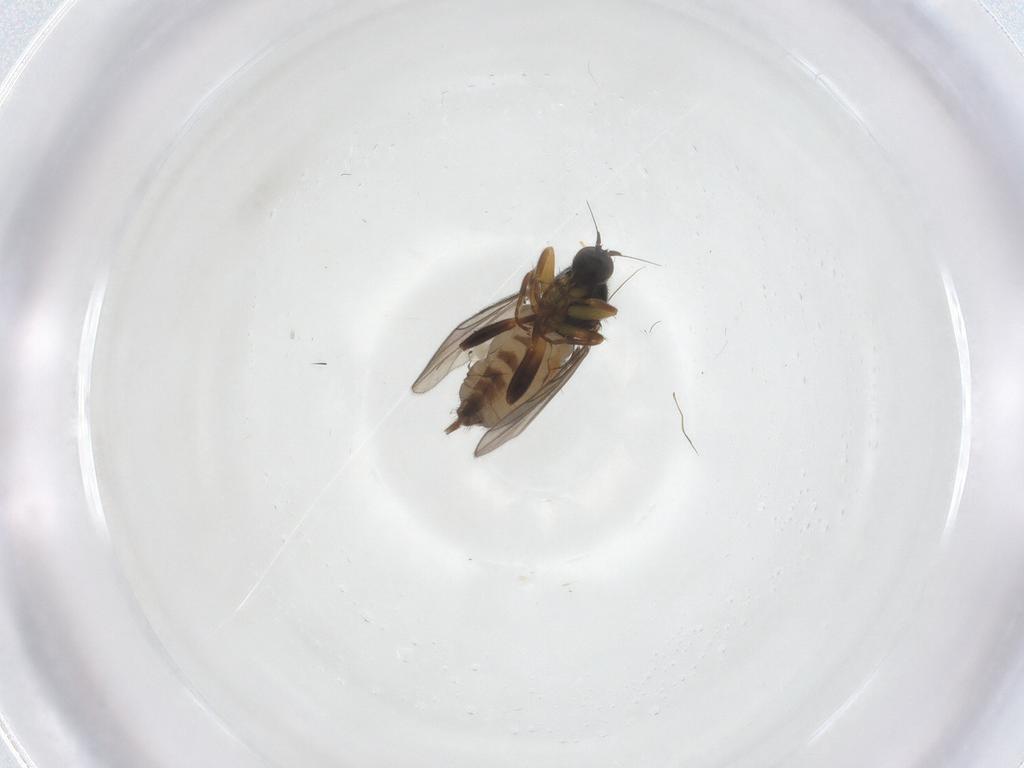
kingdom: Animalia
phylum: Arthropoda
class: Insecta
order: Diptera
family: Hybotidae
